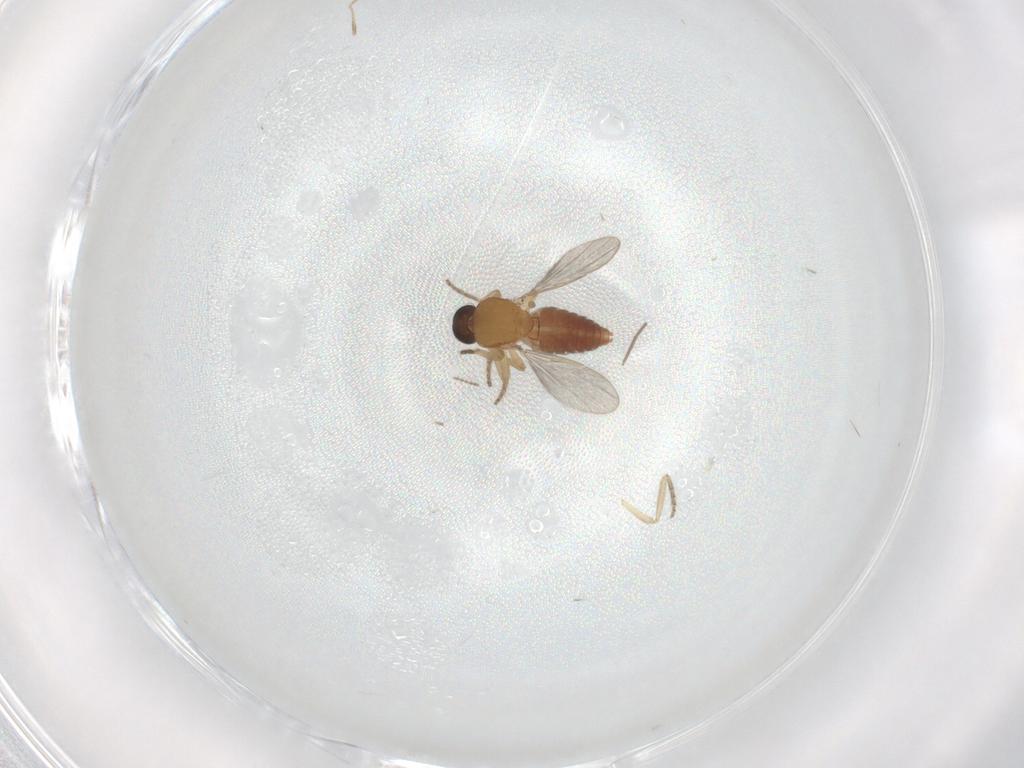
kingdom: Animalia
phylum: Arthropoda
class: Insecta
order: Diptera
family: Ceratopogonidae
